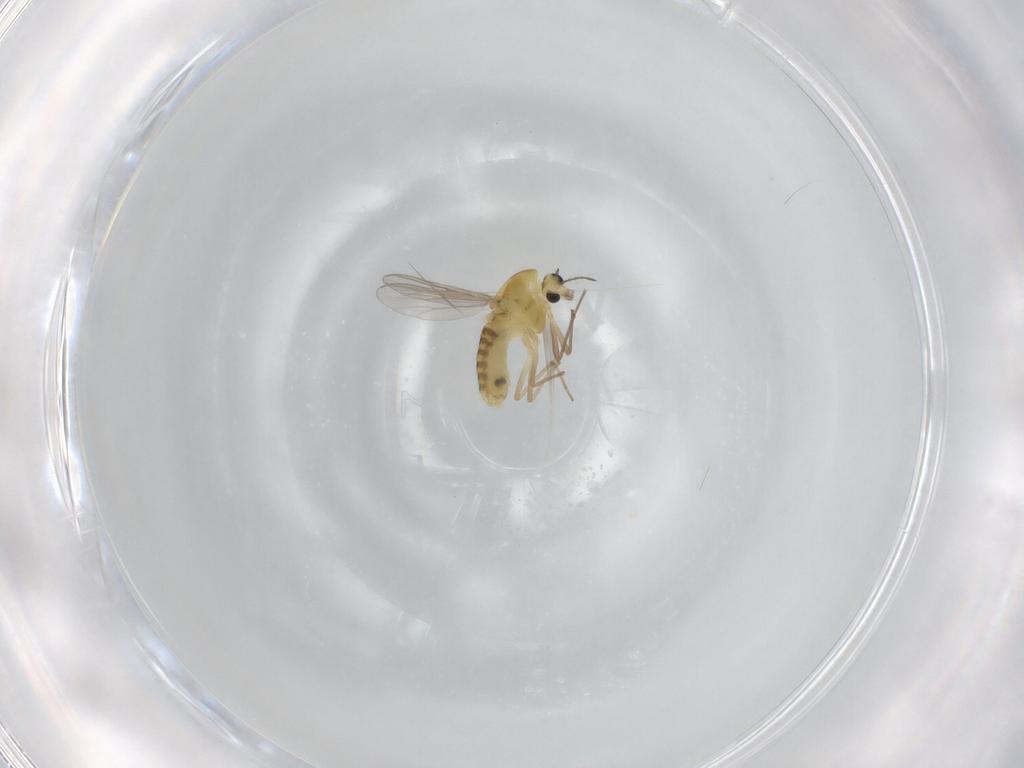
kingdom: Animalia
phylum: Arthropoda
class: Insecta
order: Diptera
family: Chironomidae
